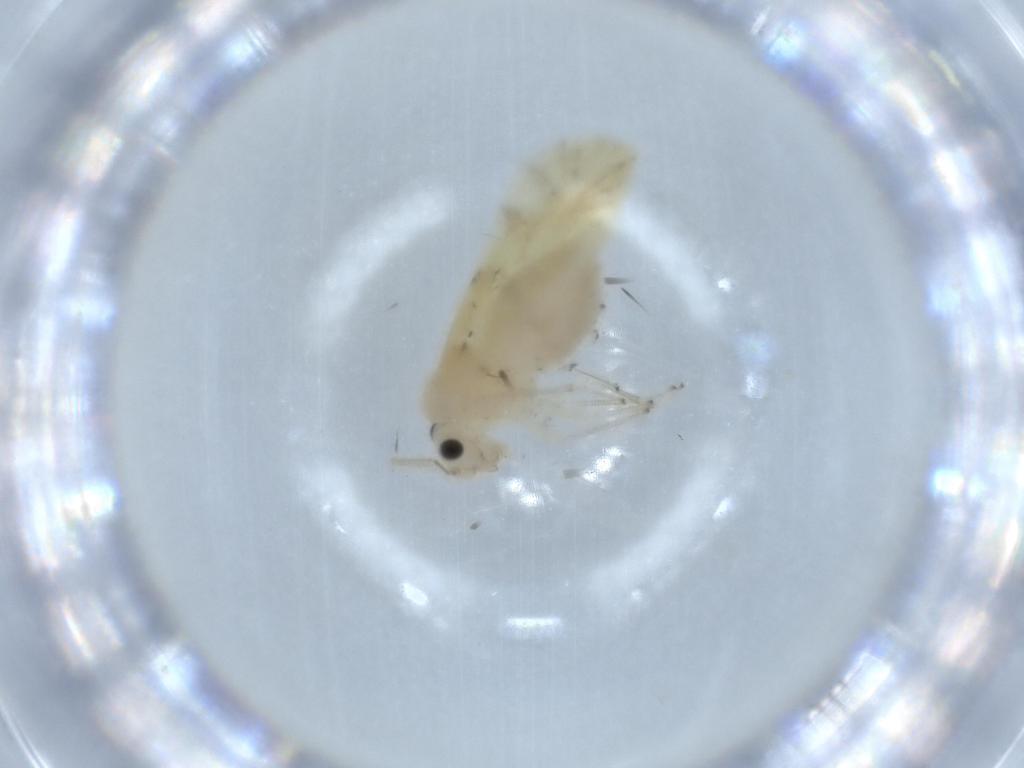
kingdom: Animalia
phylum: Arthropoda
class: Insecta
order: Psocodea
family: Caeciliusidae
